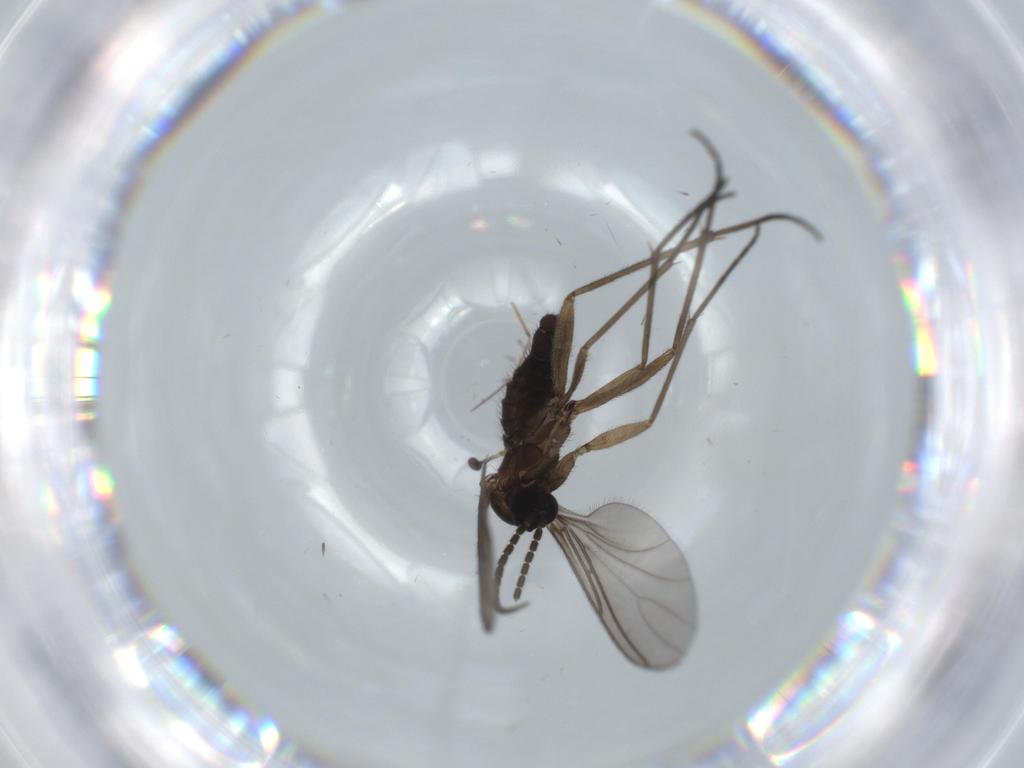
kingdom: Animalia
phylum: Arthropoda
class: Insecta
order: Diptera
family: Sciaridae
